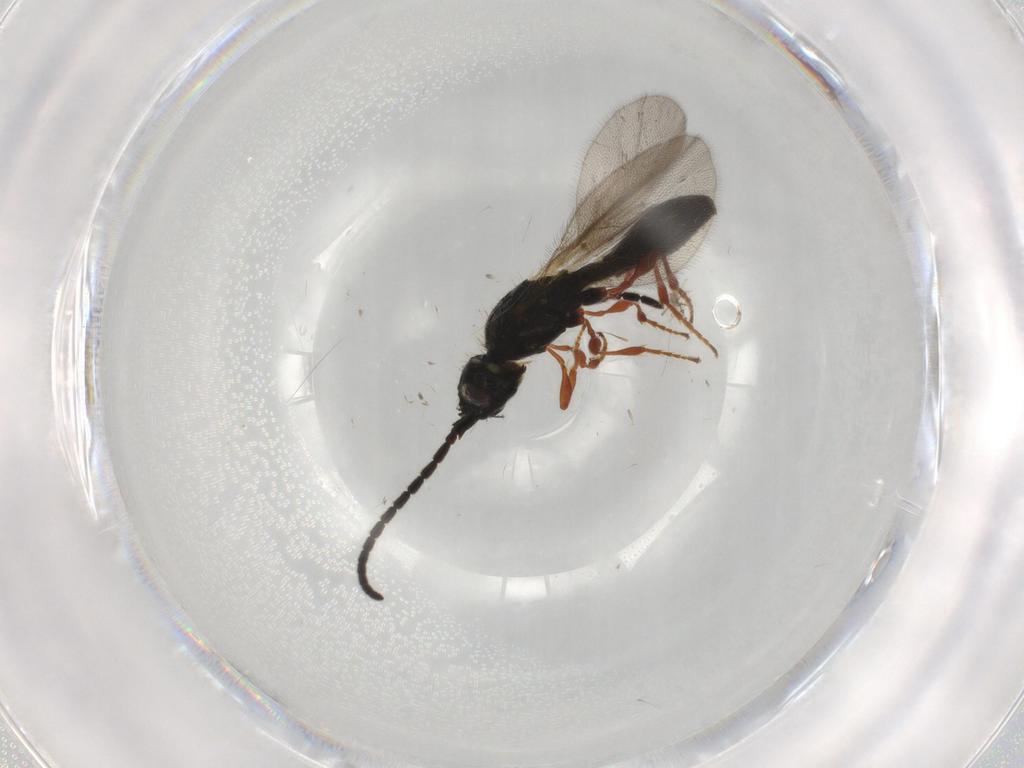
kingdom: Animalia
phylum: Arthropoda
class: Insecta
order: Hymenoptera
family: Diapriidae
